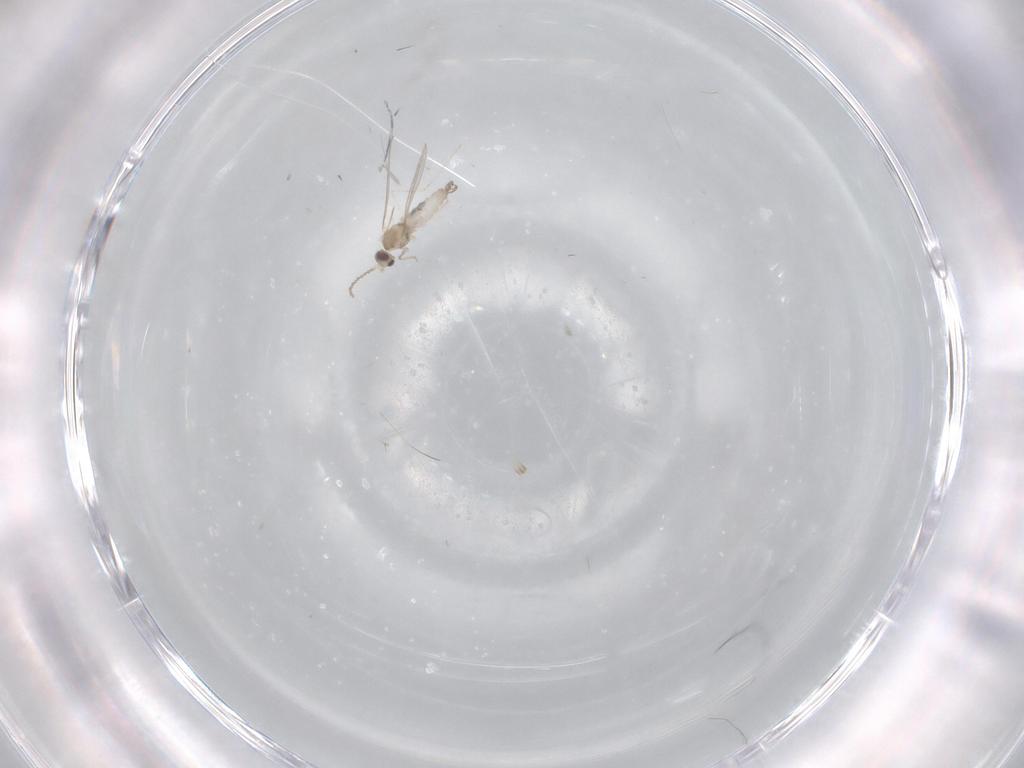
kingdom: Animalia
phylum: Arthropoda
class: Insecta
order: Diptera
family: Cecidomyiidae
